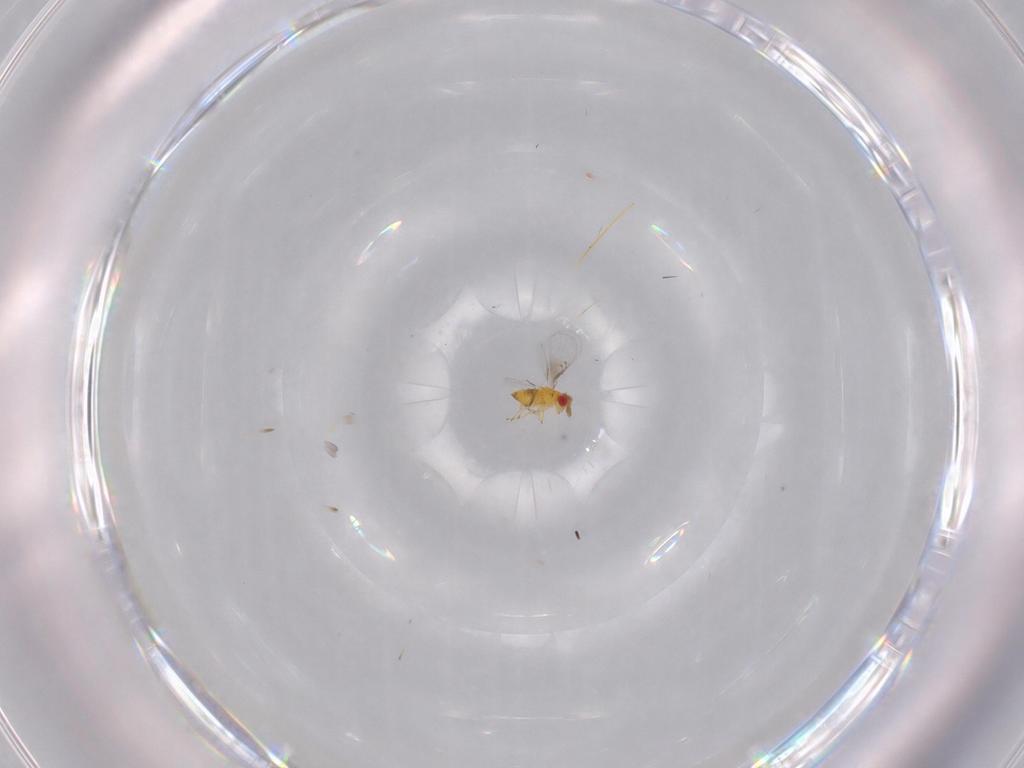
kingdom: Animalia
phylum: Arthropoda
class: Insecta
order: Hymenoptera
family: Trichogrammatidae
